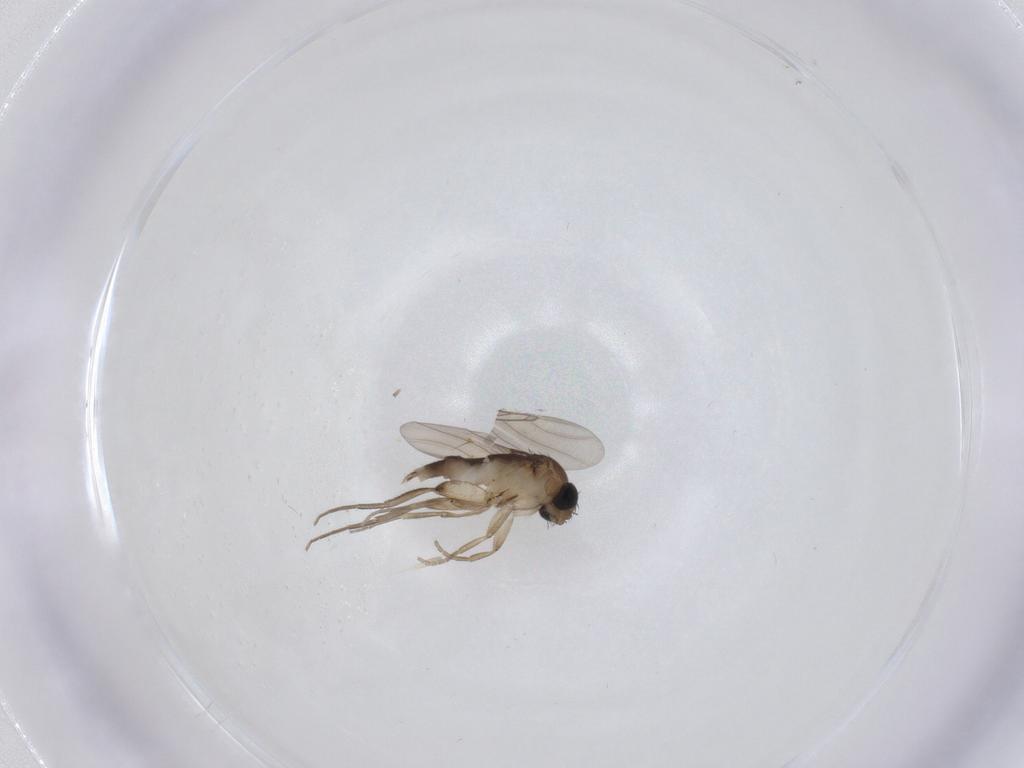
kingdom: Animalia
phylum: Arthropoda
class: Insecta
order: Diptera
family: Phoridae
